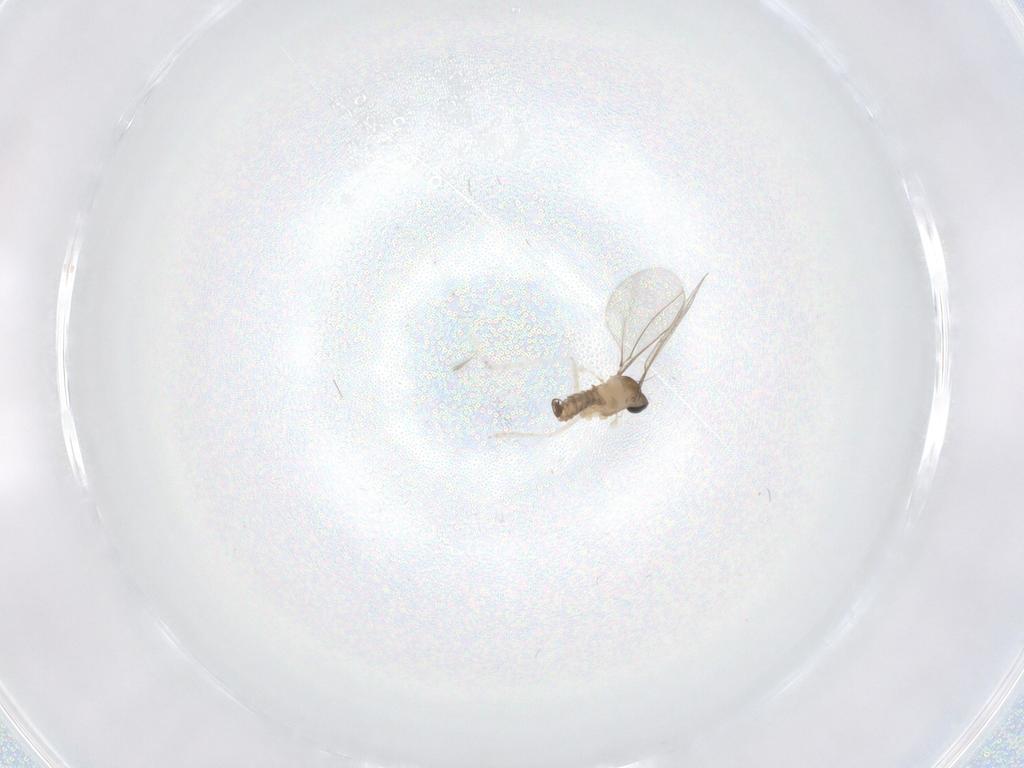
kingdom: Animalia
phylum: Arthropoda
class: Insecta
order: Diptera
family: Cecidomyiidae
